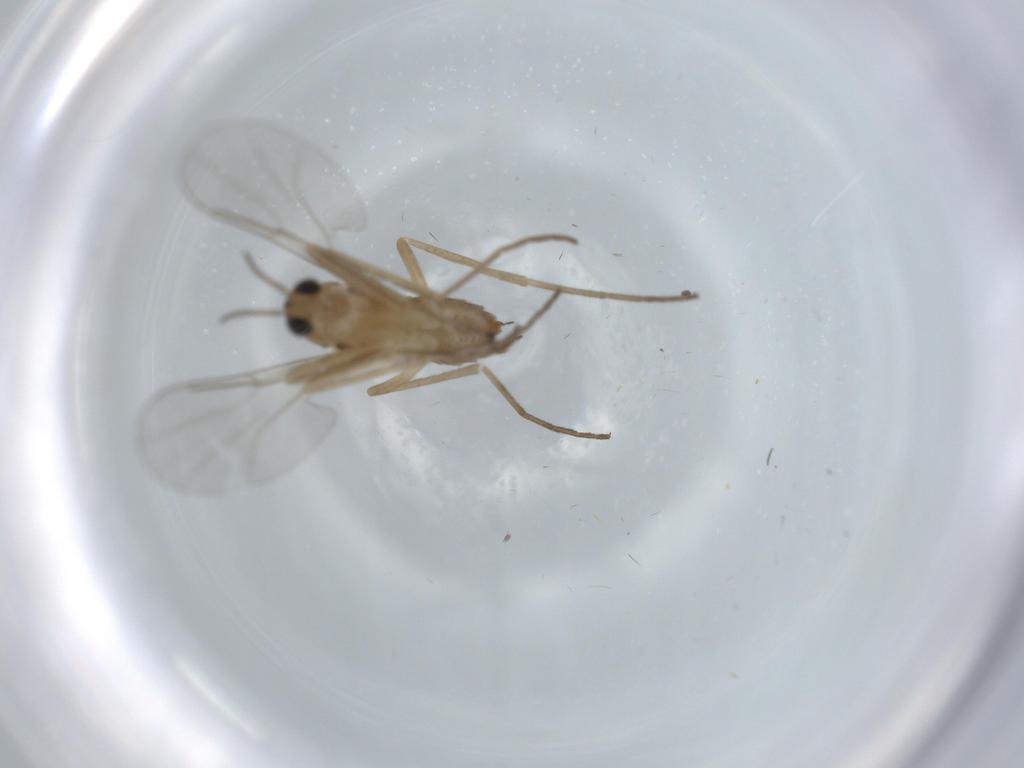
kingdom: Animalia
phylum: Arthropoda
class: Insecta
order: Diptera
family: Cecidomyiidae
